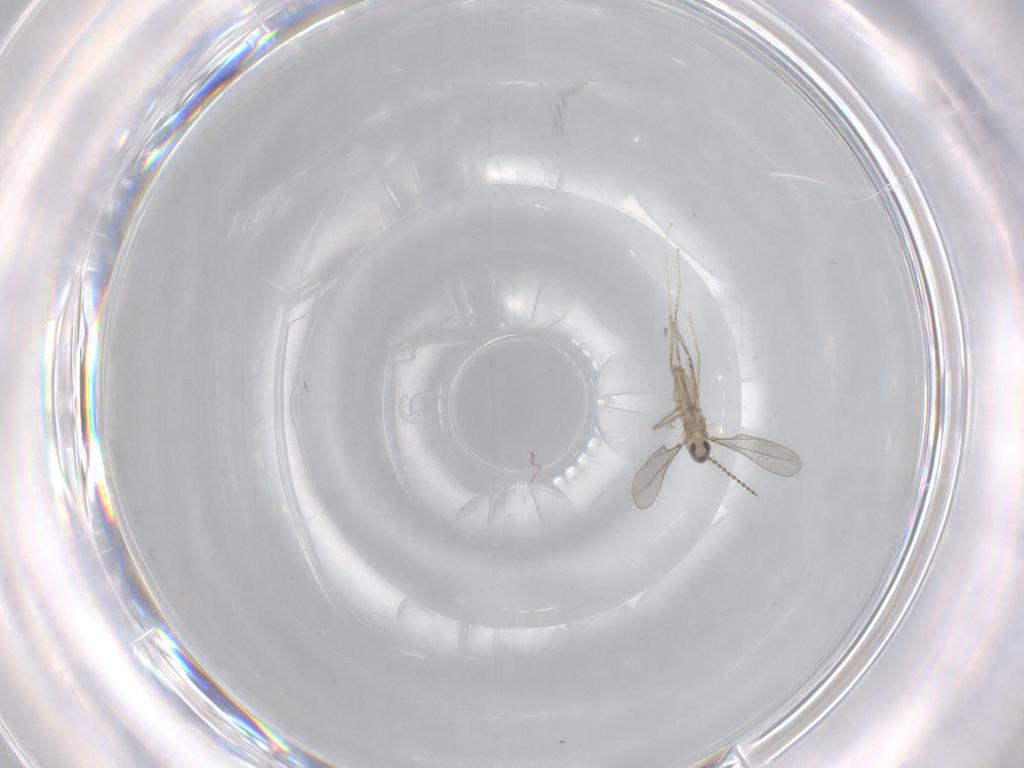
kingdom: Animalia
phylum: Arthropoda
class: Insecta
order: Diptera
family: Cecidomyiidae
